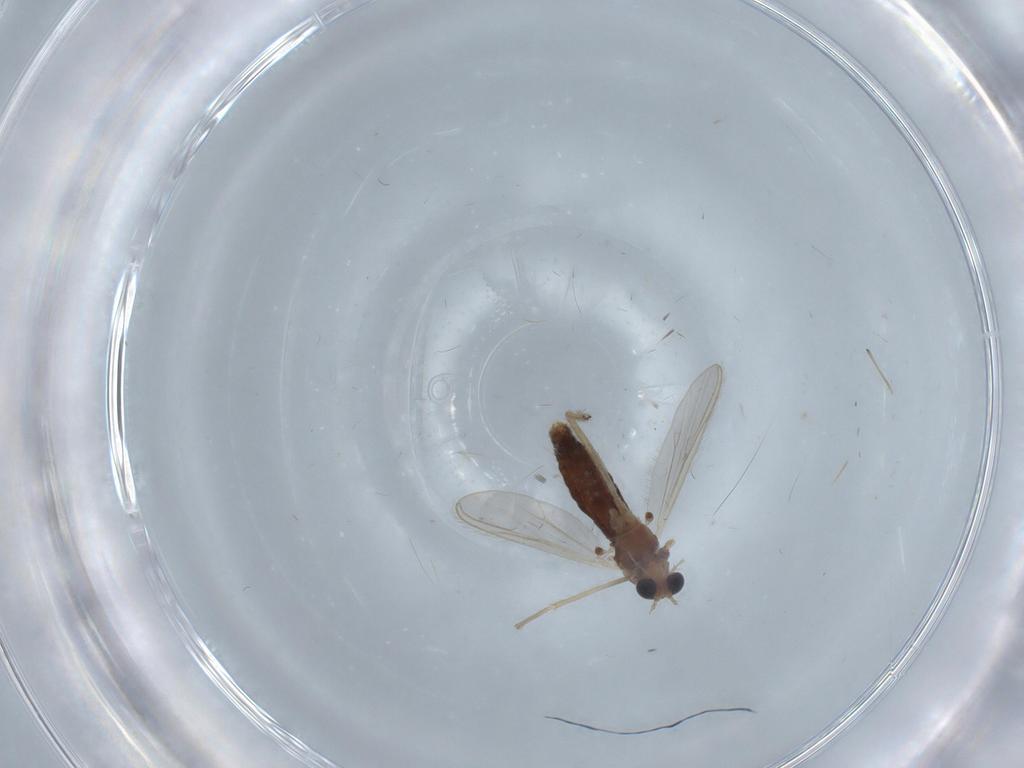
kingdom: Animalia
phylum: Arthropoda
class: Insecta
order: Diptera
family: Phoridae
